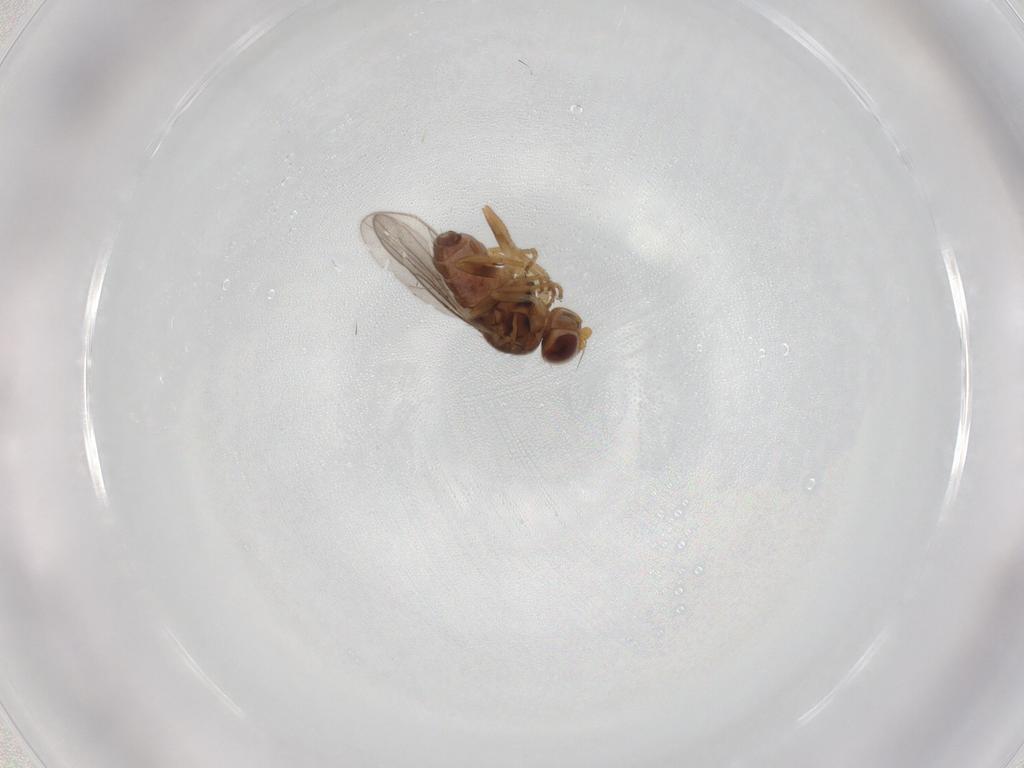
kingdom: Animalia
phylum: Arthropoda
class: Insecta
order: Diptera
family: Chloropidae
